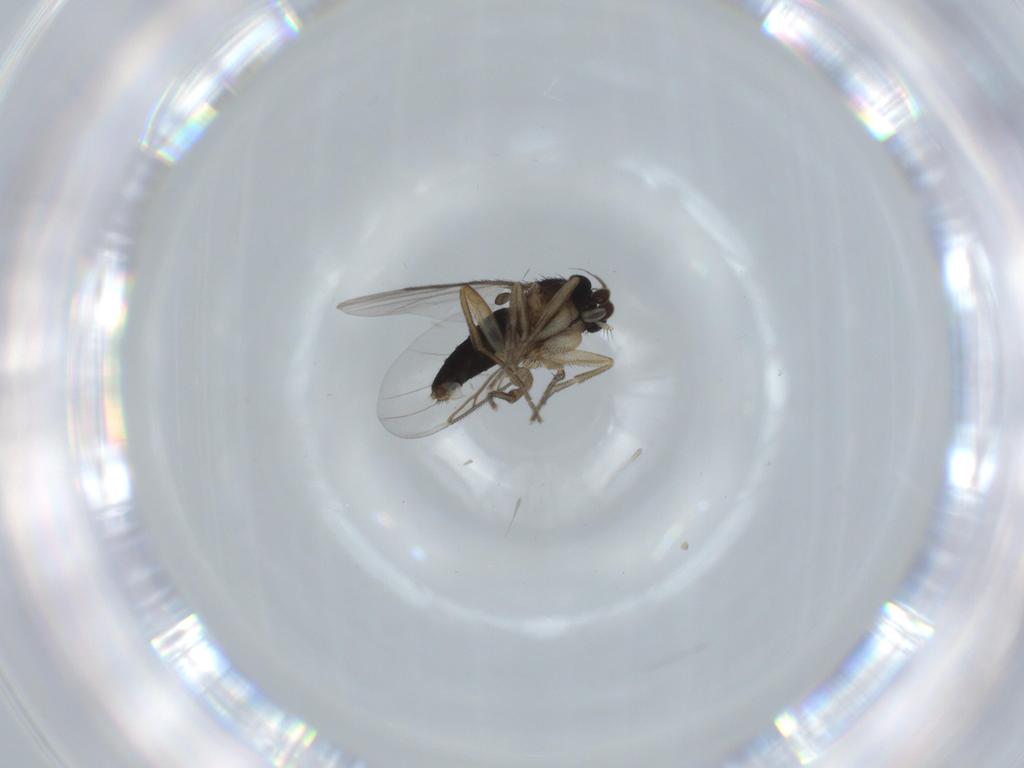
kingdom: Animalia
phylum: Arthropoda
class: Insecta
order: Diptera
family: Phoridae
